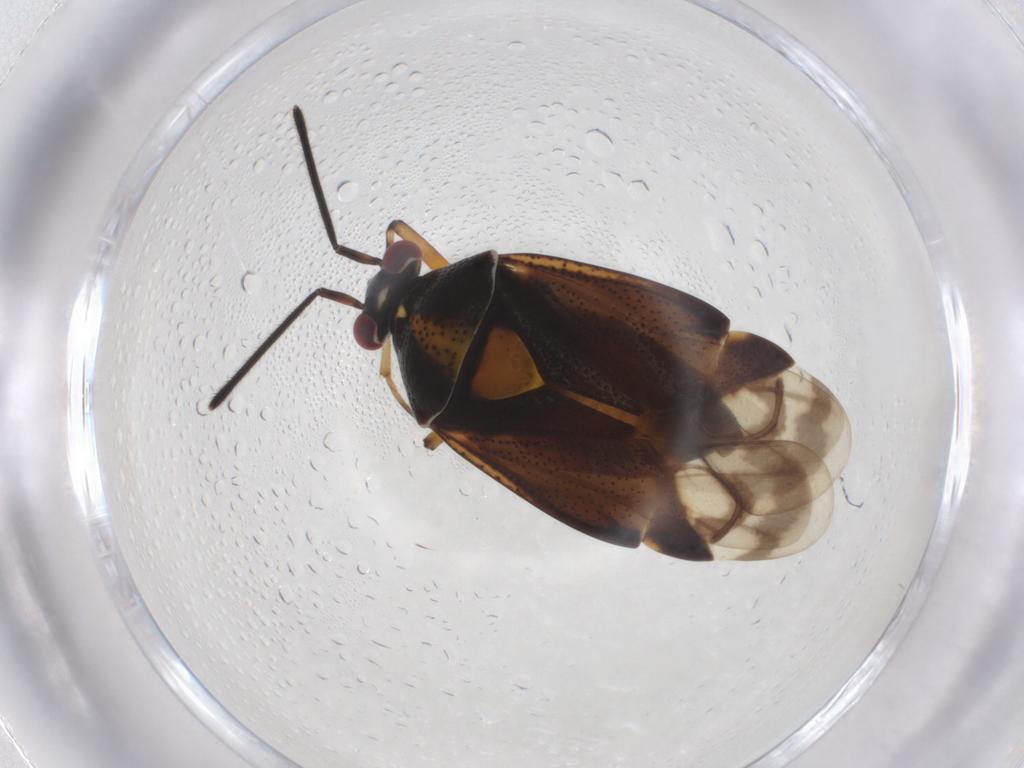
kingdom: Animalia
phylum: Arthropoda
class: Insecta
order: Hemiptera
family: Miridae
